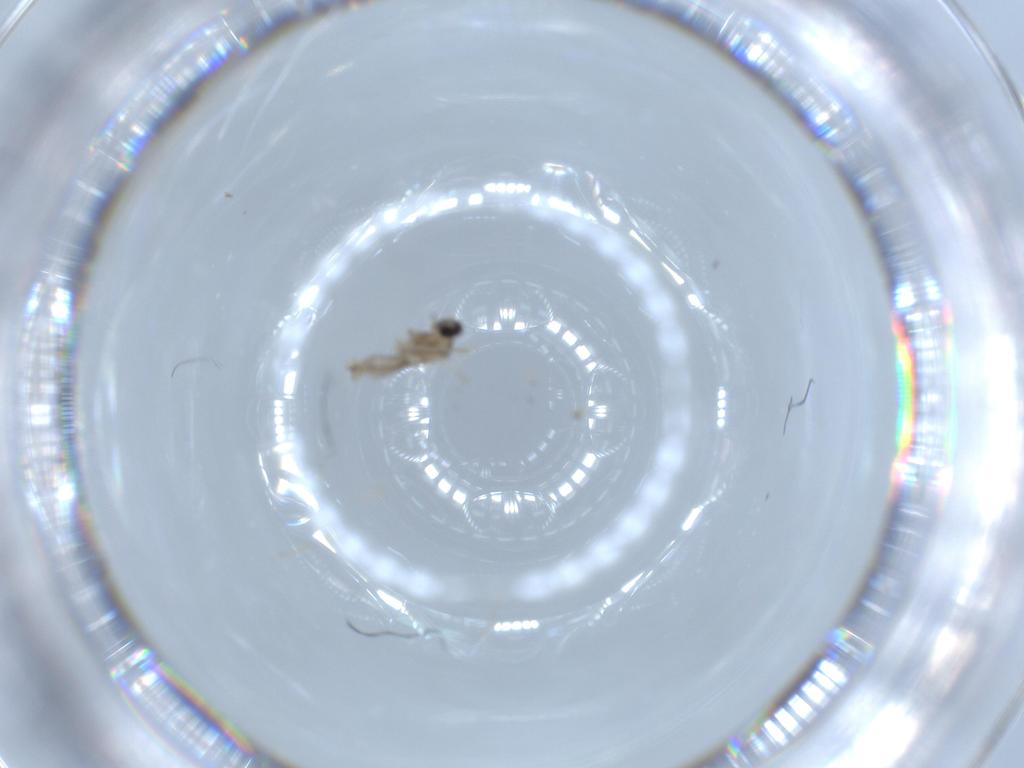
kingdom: Animalia
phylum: Arthropoda
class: Insecta
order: Diptera
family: Cecidomyiidae
